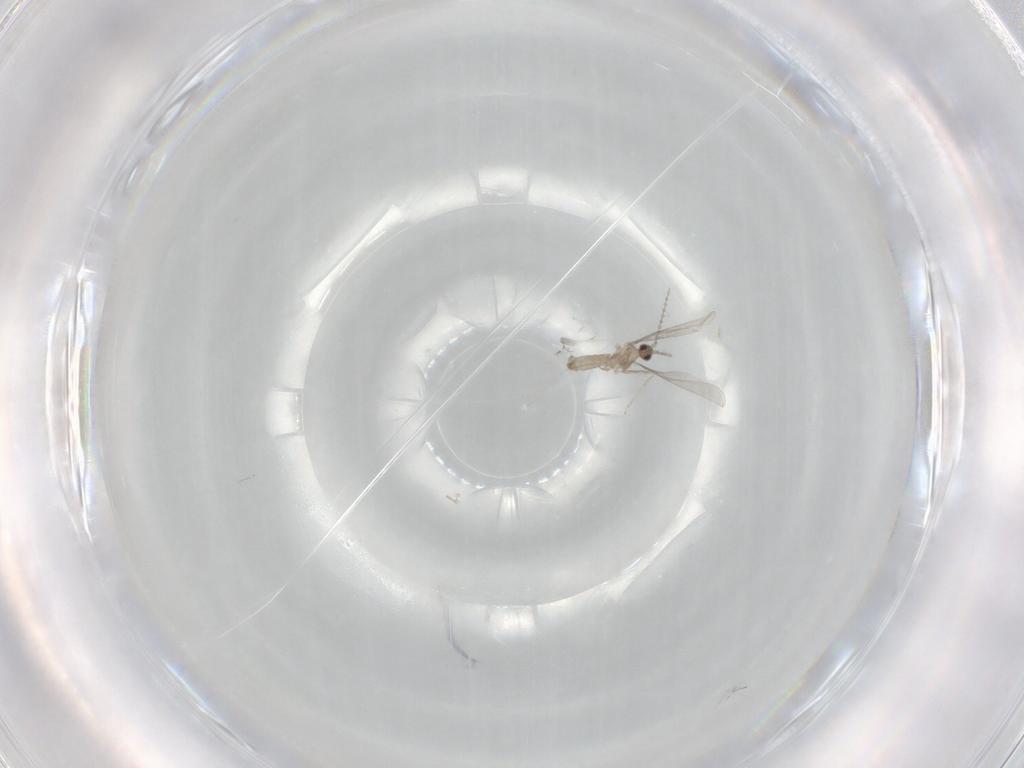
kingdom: Animalia
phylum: Arthropoda
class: Insecta
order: Diptera
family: Cecidomyiidae
